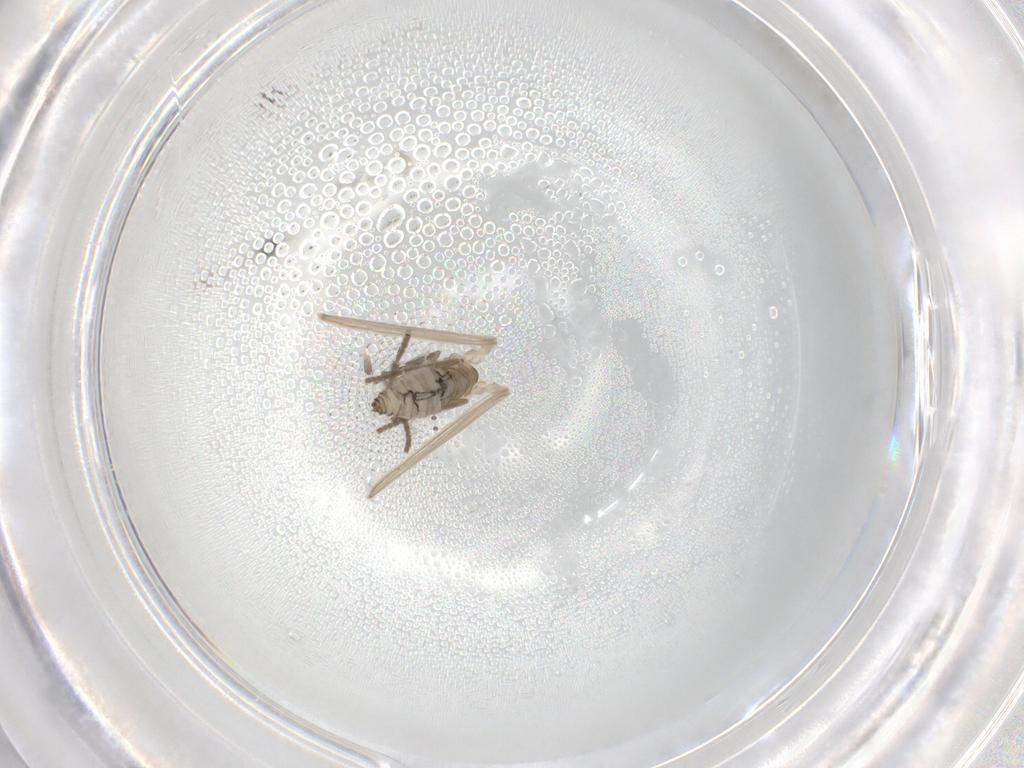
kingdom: Animalia
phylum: Arthropoda
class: Insecta
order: Diptera
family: Psychodidae
